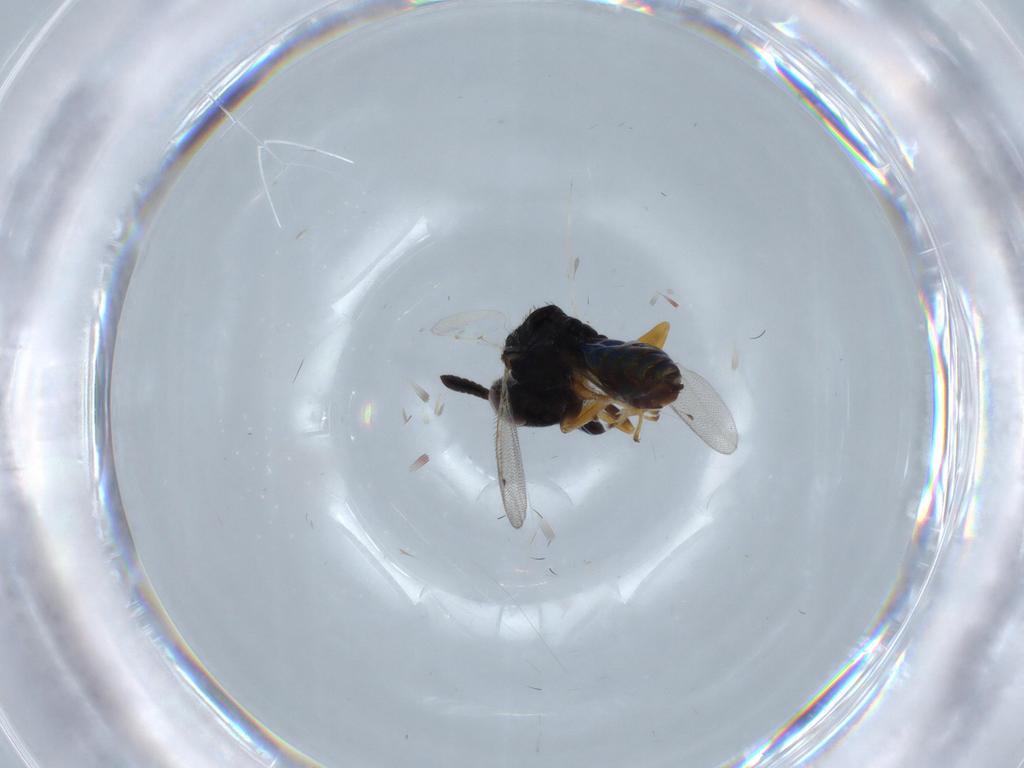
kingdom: Animalia
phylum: Arthropoda
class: Insecta
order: Hymenoptera
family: Agaonidae
